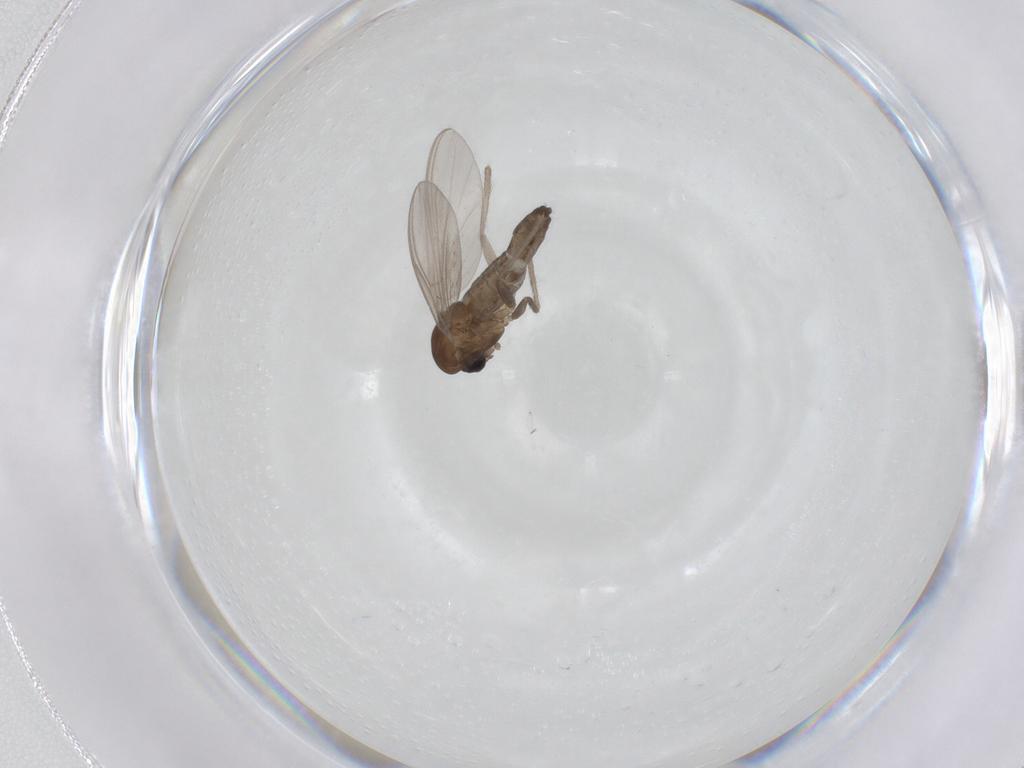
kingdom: Animalia
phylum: Arthropoda
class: Insecta
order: Diptera
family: Chironomidae
